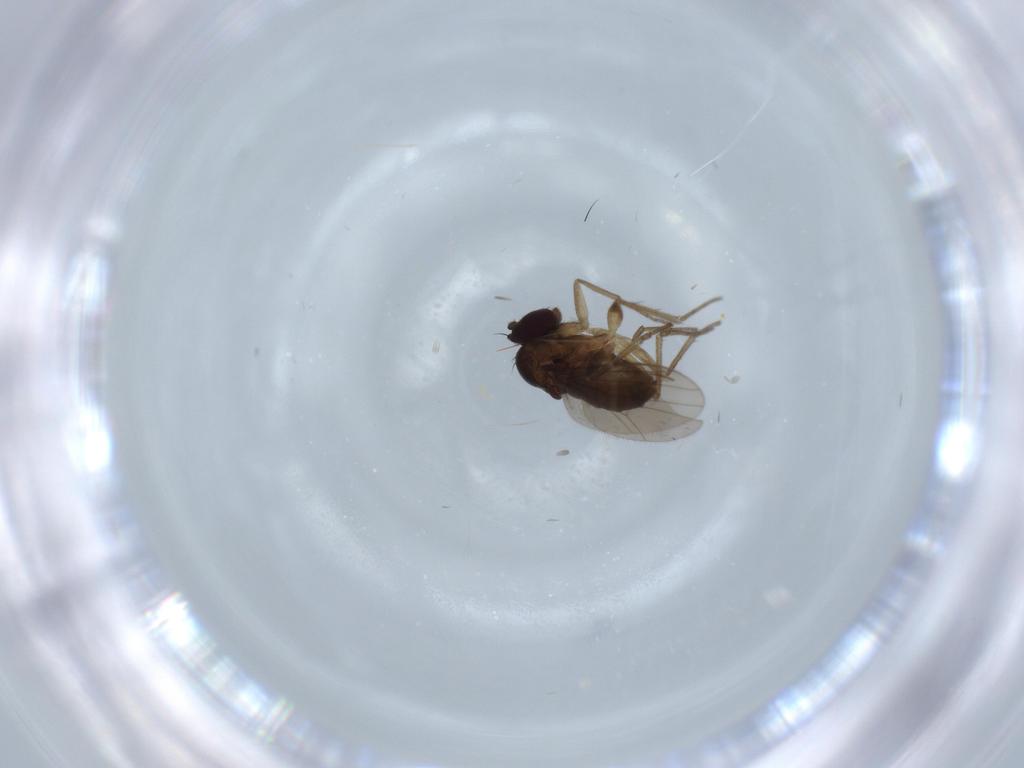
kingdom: Animalia
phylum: Arthropoda
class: Insecta
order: Diptera
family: Dolichopodidae
